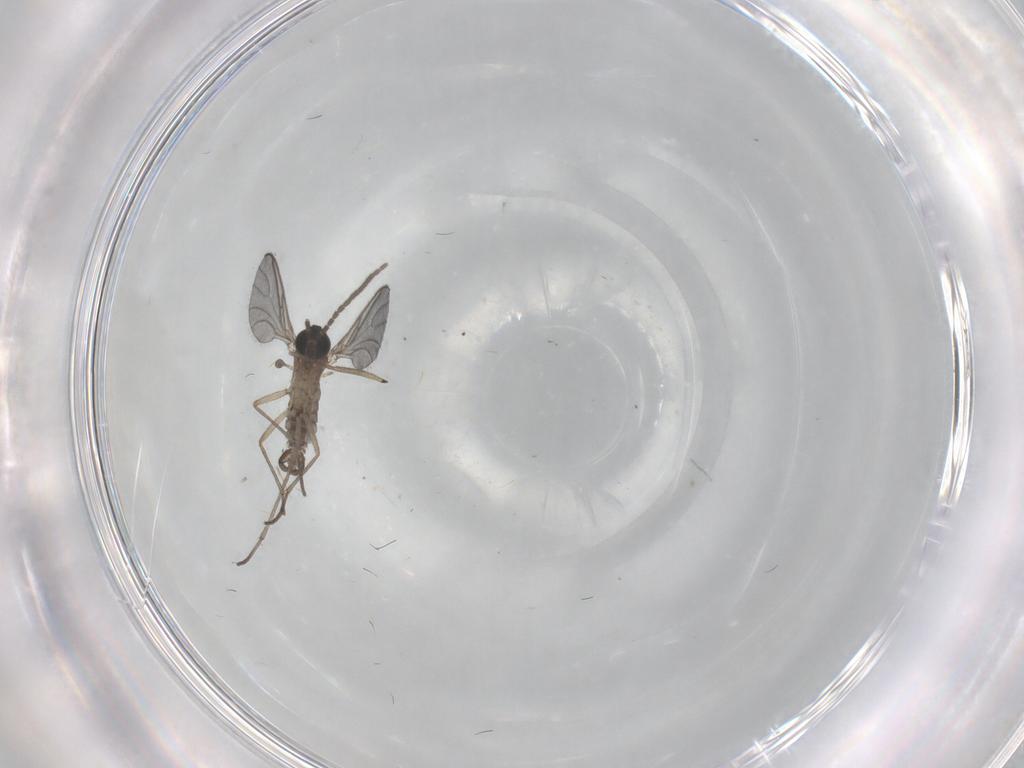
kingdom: Animalia
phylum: Arthropoda
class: Insecta
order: Diptera
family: Sciaridae
